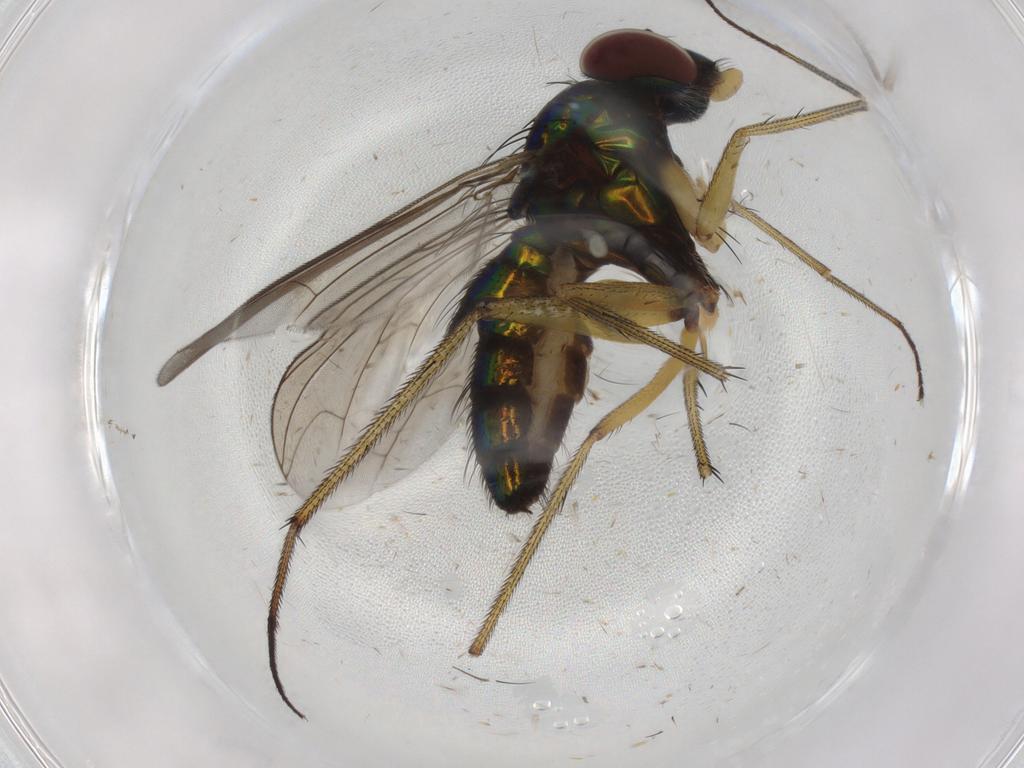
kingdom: Animalia
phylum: Arthropoda
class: Insecta
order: Diptera
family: Dolichopodidae
